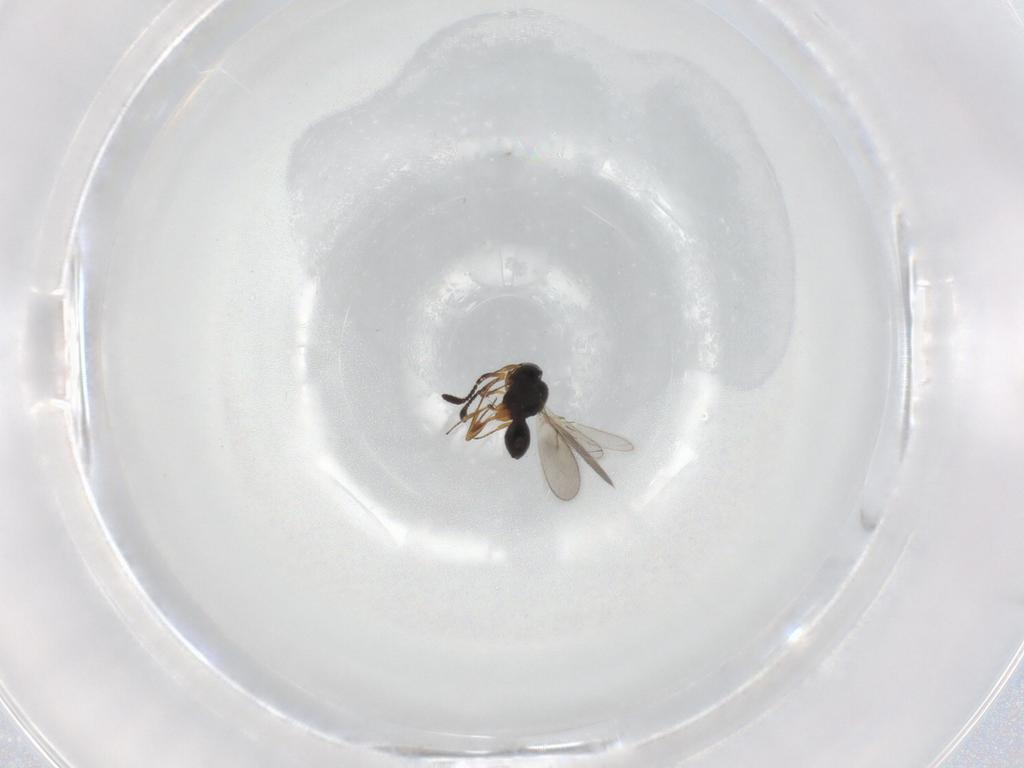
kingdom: Animalia
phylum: Arthropoda
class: Insecta
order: Hymenoptera
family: Scelionidae
